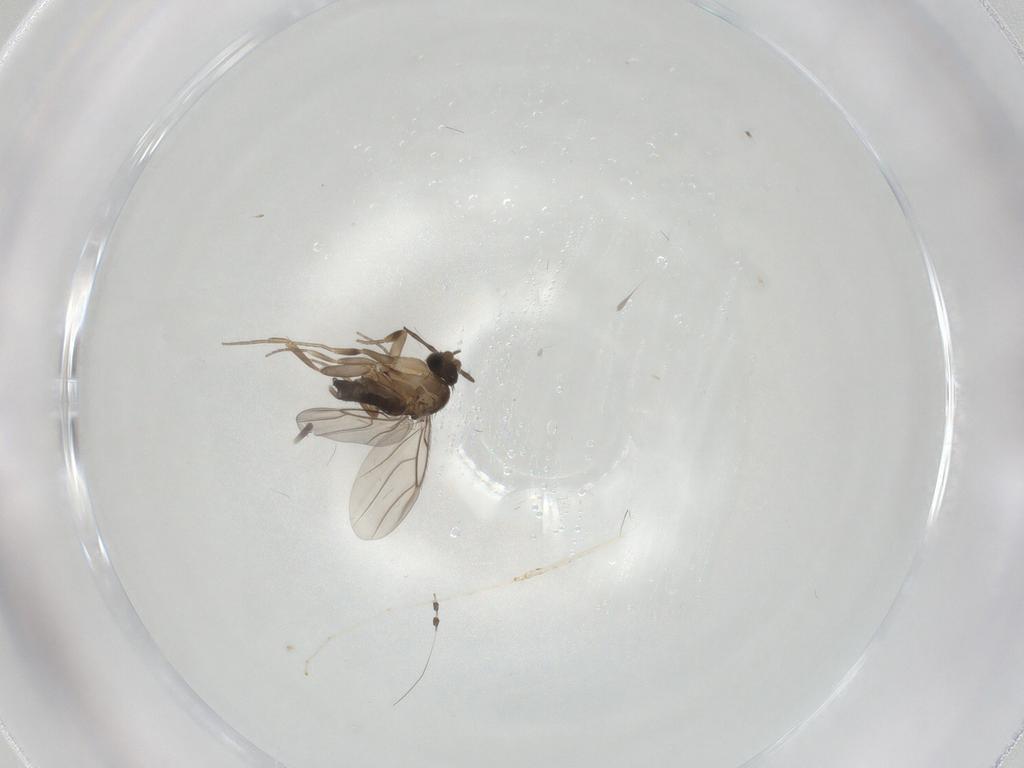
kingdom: Animalia
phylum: Arthropoda
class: Insecta
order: Diptera
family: Phoridae
